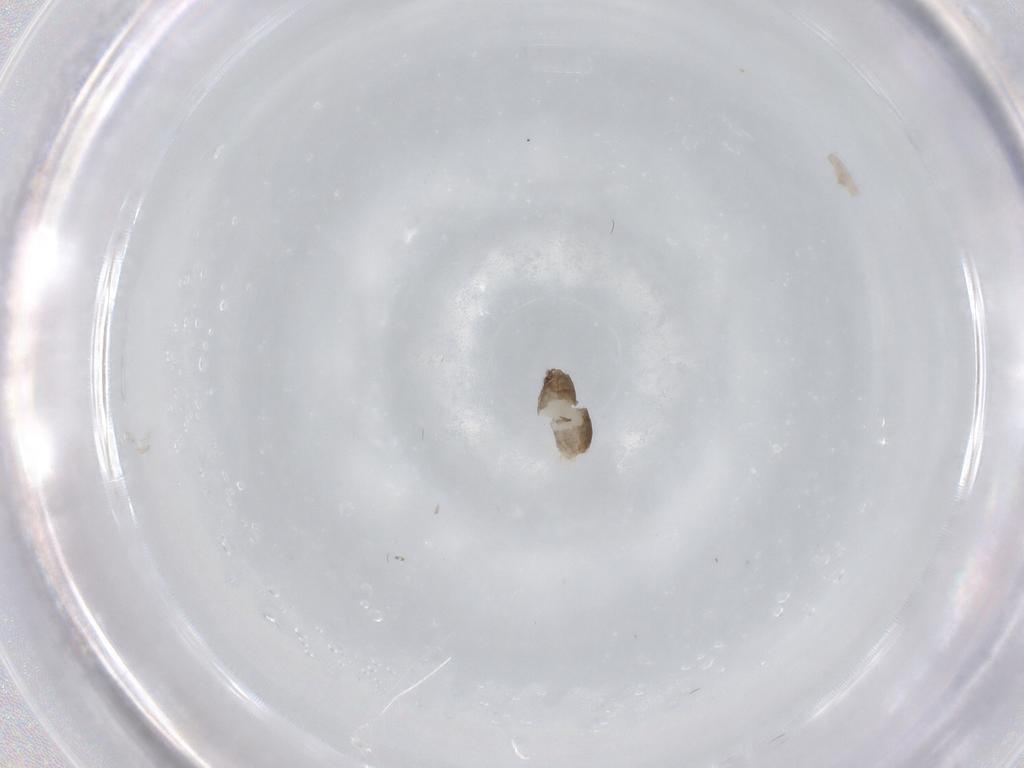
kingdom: Animalia
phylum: Arthropoda
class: Insecta
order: Diptera
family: Chironomidae
